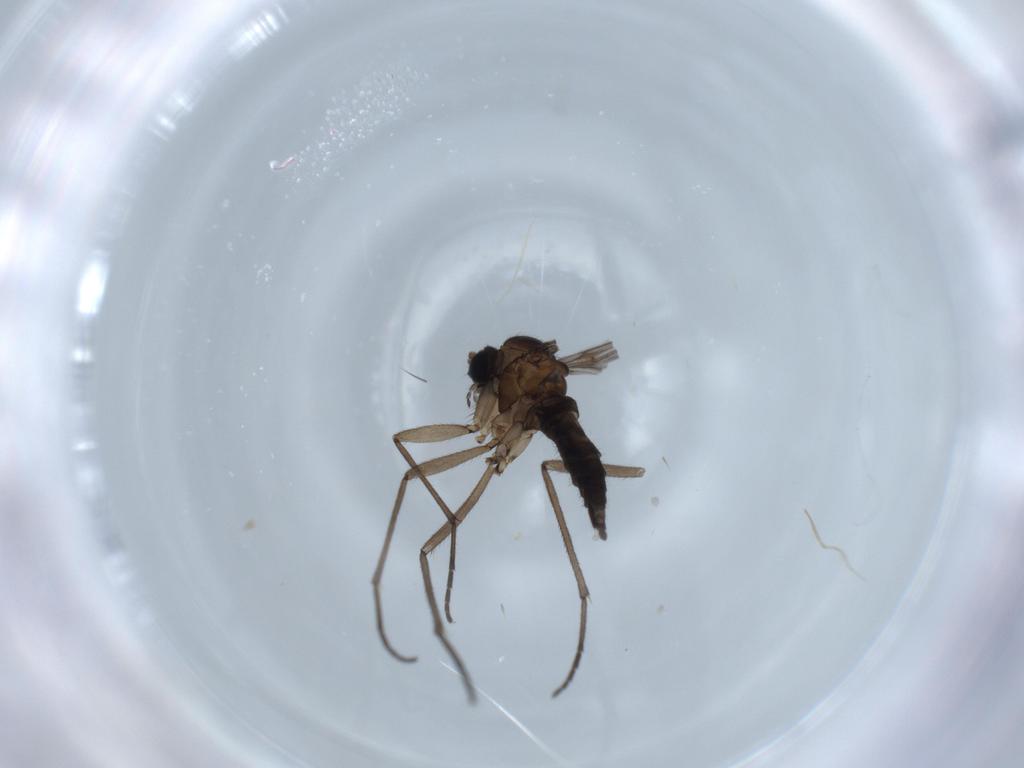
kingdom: Animalia
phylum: Arthropoda
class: Insecta
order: Diptera
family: Sciaridae
